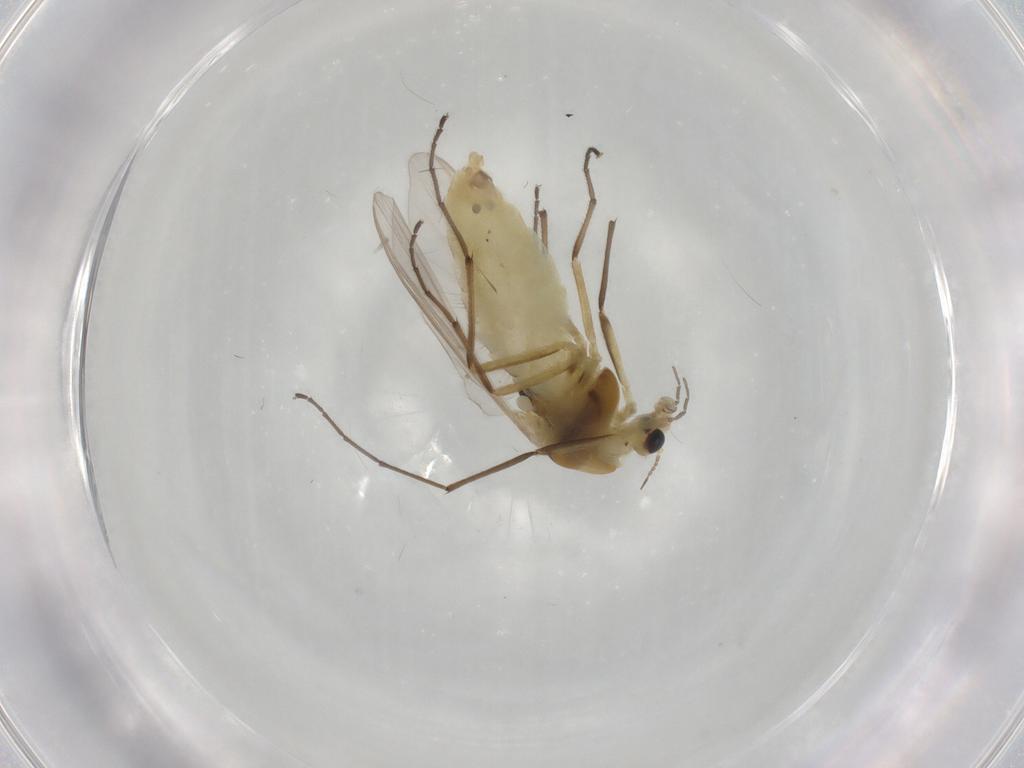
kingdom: Animalia
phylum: Arthropoda
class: Insecta
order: Diptera
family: Chironomidae
